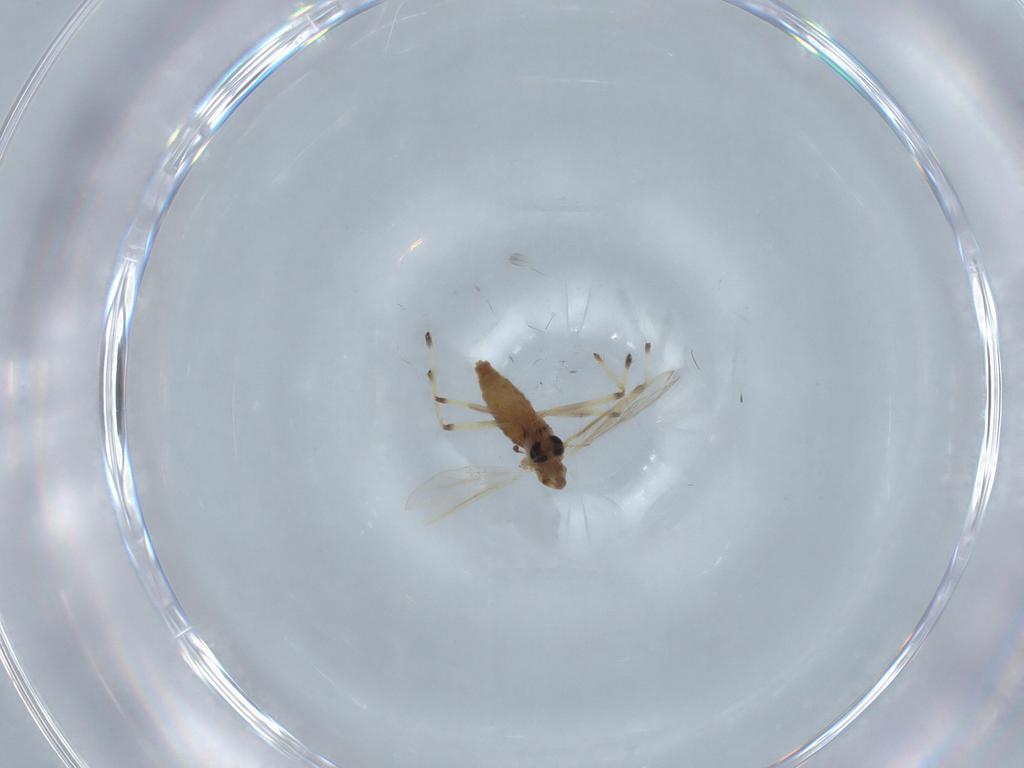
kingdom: Animalia
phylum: Arthropoda
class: Insecta
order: Diptera
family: Chironomidae
